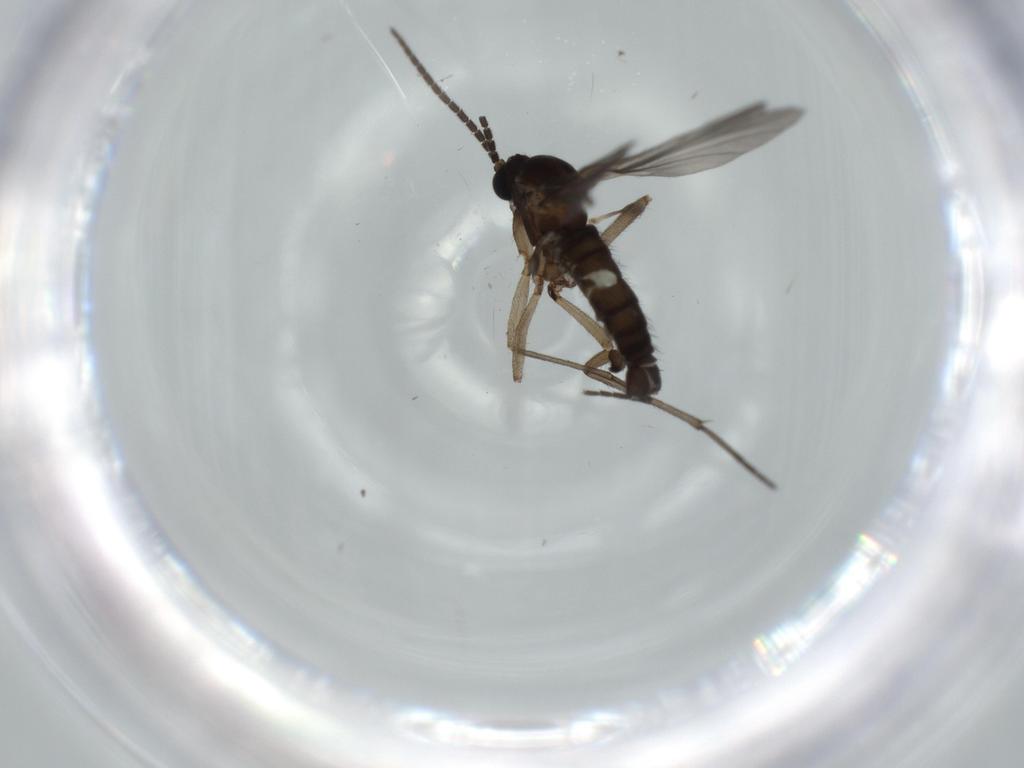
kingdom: Animalia
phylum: Arthropoda
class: Insecta
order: Diptera
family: Sciaridae
